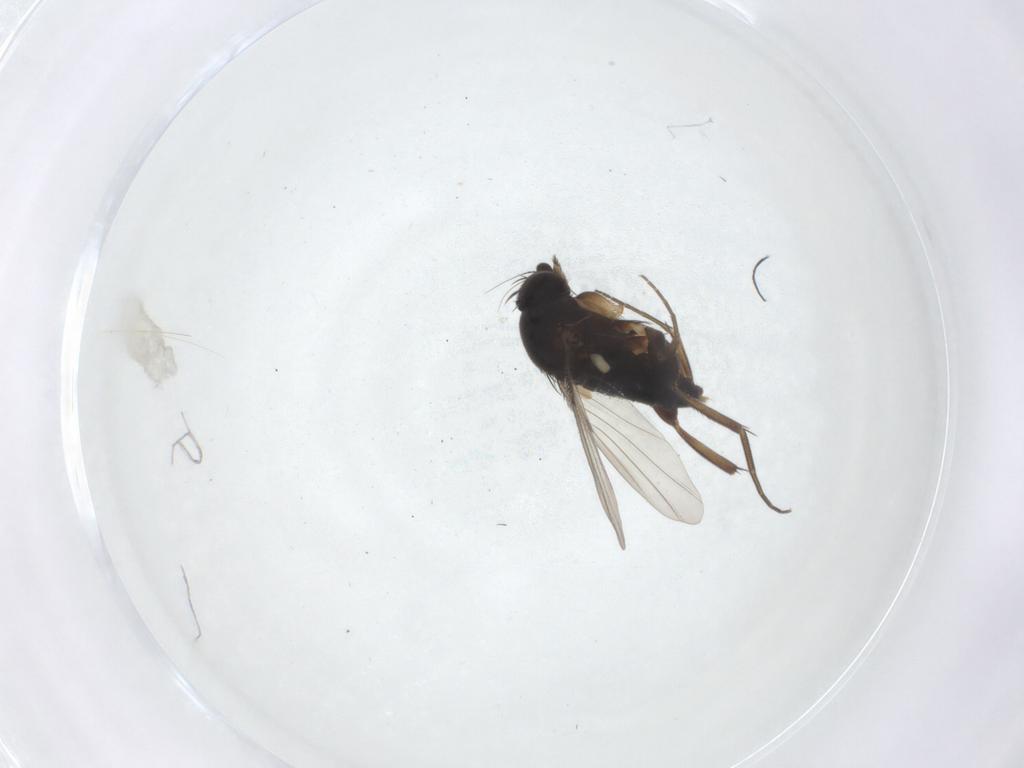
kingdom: Animalia
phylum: Arthropoda
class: Insecta
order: Diptera
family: Phoridae
